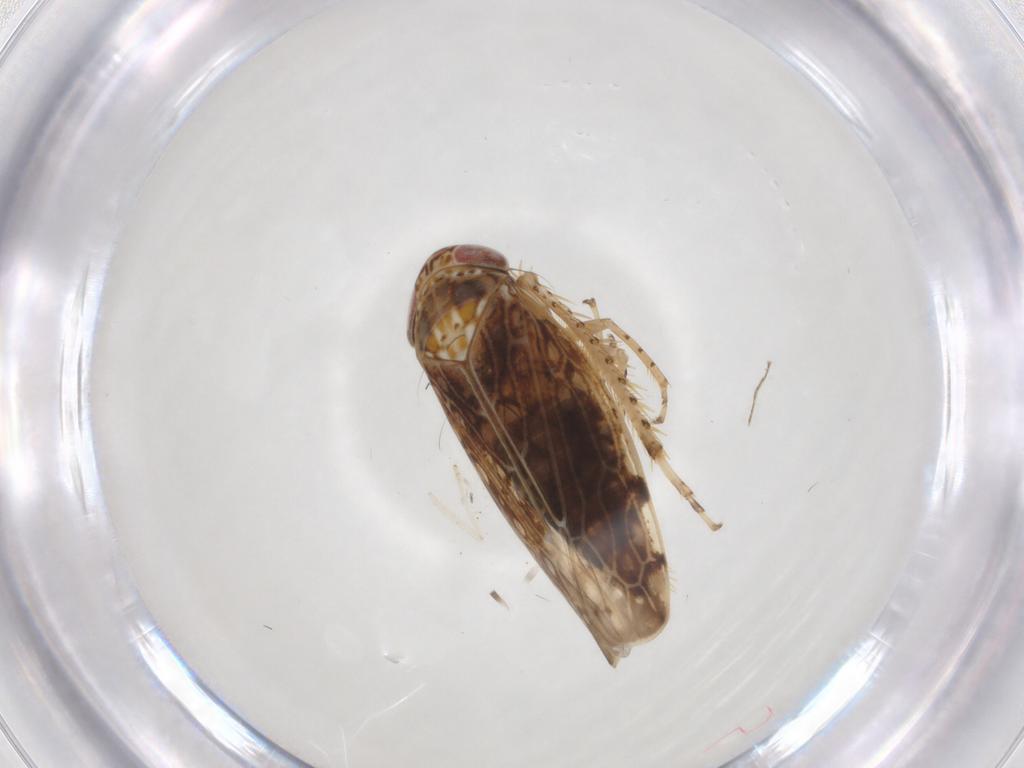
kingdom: Animalia
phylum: Arthropoda
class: Insecta
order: Hemiptera
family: Cicadellidae
